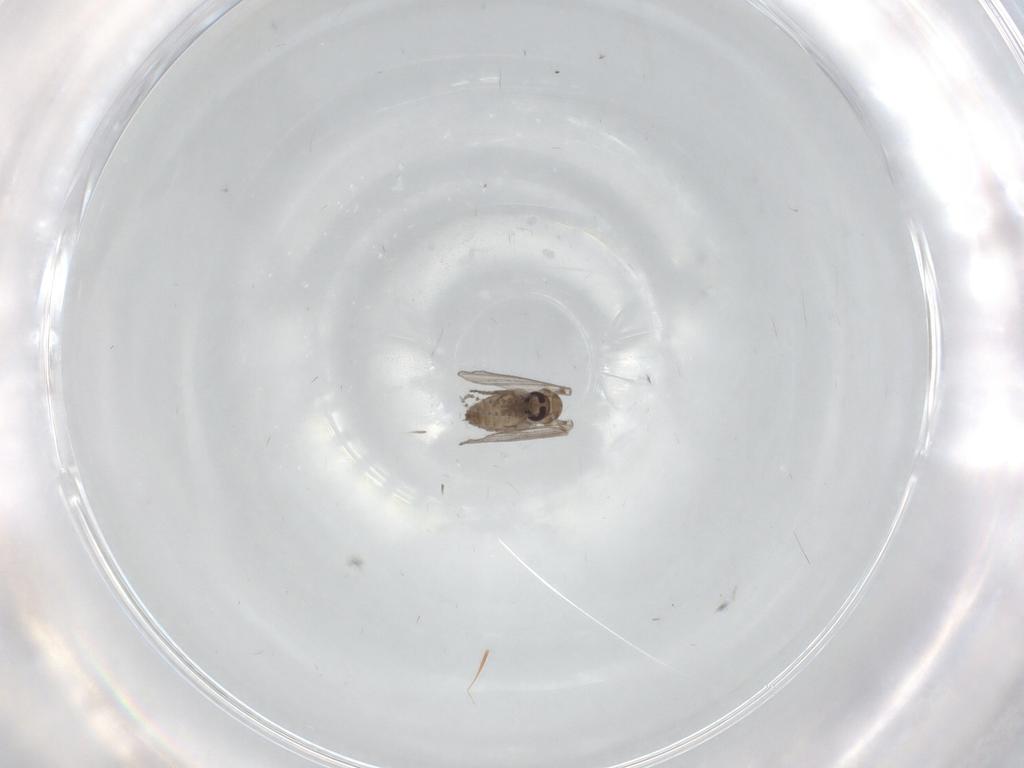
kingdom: Animalia
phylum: Arthropoda
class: Insecta
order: Diptera
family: Psychodidae
